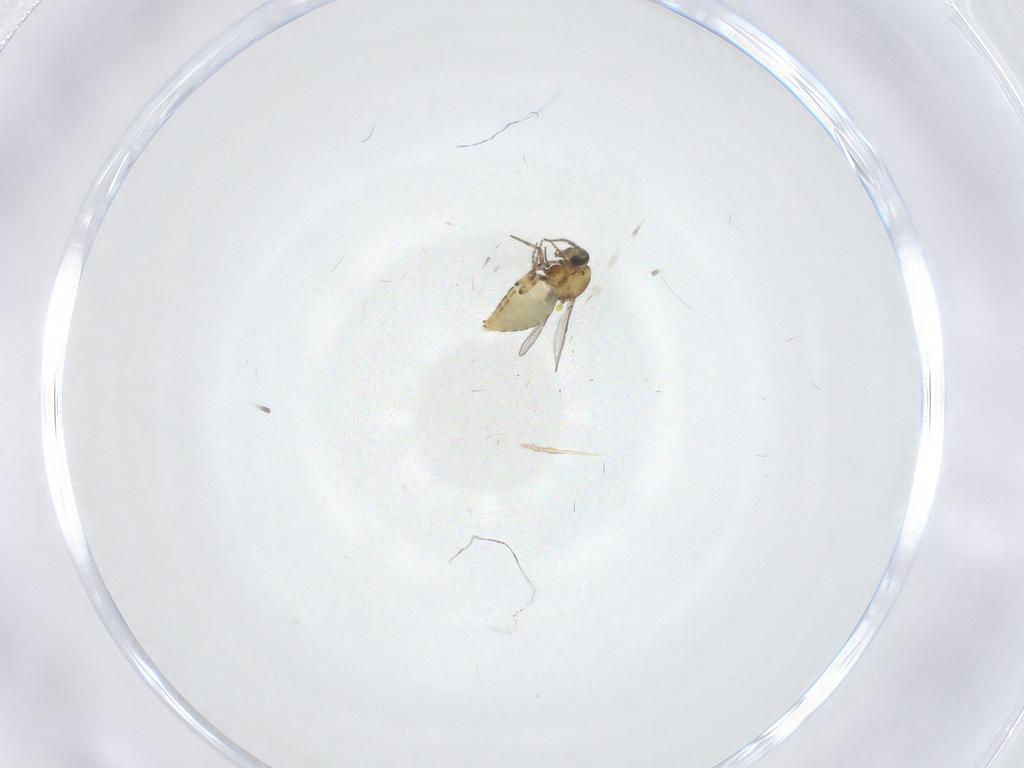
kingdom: Animalia
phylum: Arthropoda
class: Insecta
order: Diptera
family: Ceratopogonidae
